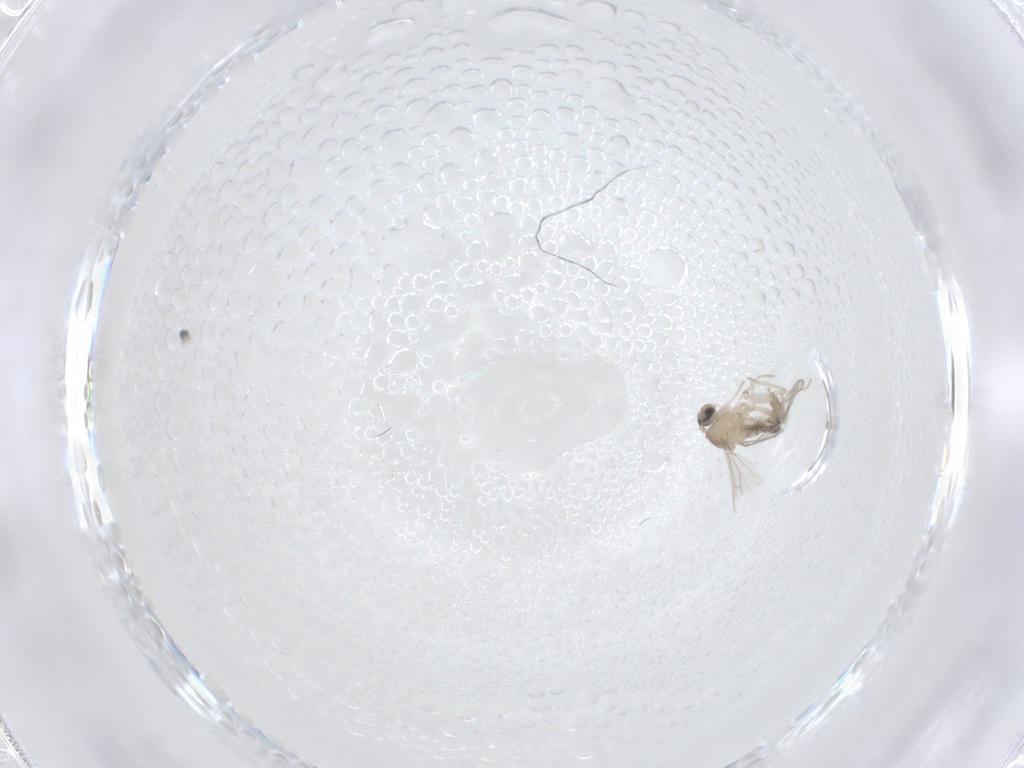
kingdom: Animalia
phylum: Arthropoda
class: Insecta
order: Diptera
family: Cecidomyiidae
